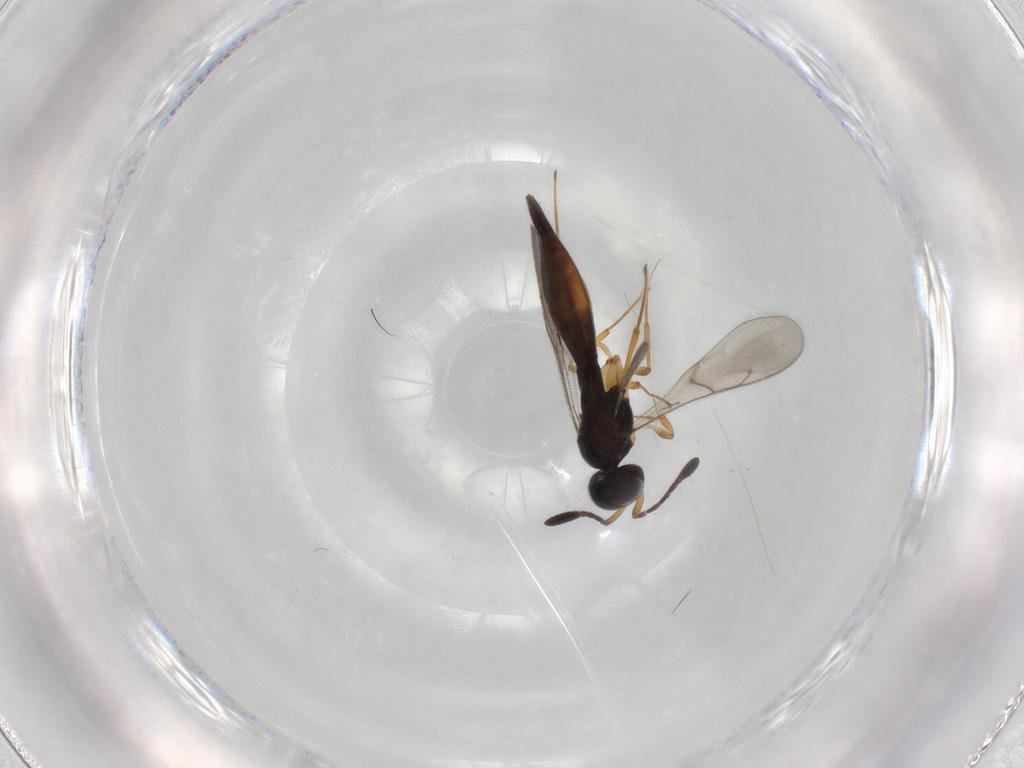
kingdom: Animalia
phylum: Arthropoda
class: Insecta
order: Hymenoptera
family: Scelionidae
